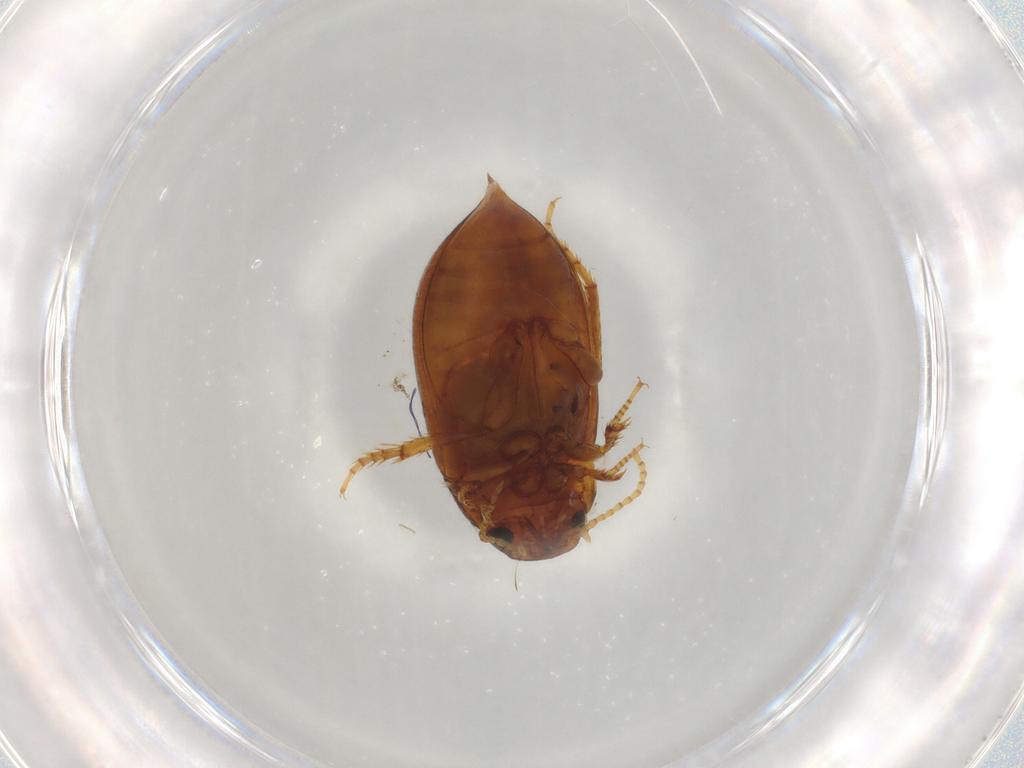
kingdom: Animalia
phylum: Arthropoda
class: Insecta
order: Coleoptera
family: Dytiscidae
